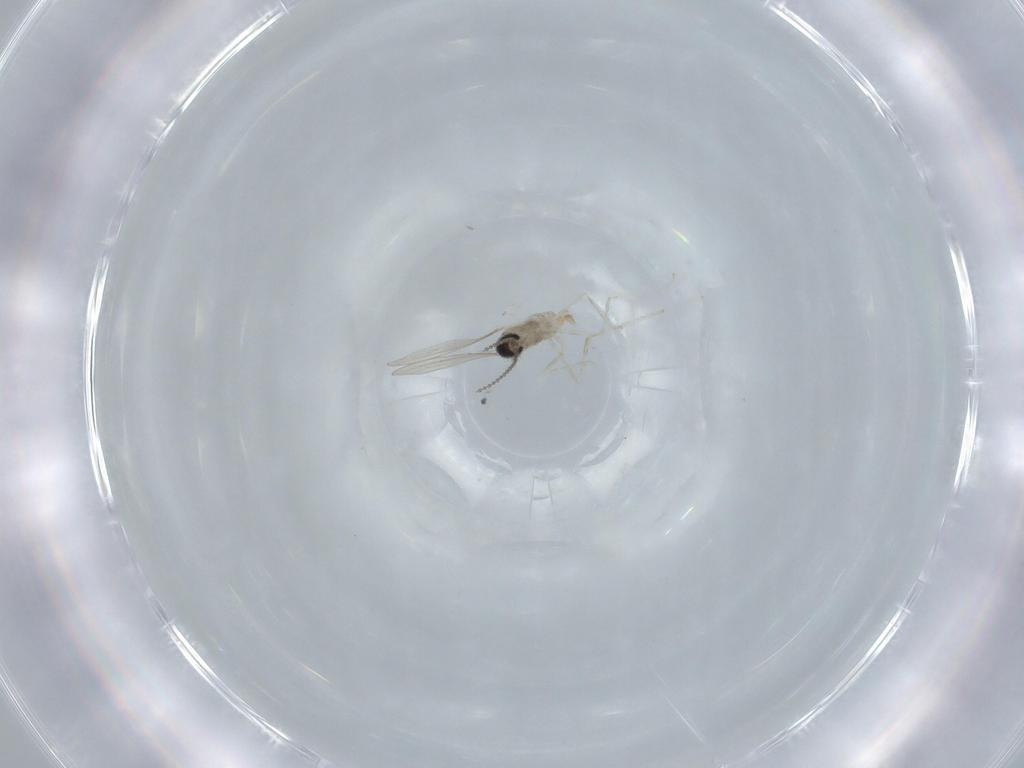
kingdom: Animalia
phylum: Arthropoda
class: Insecta
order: Diptera
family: Cecidomyiidae
